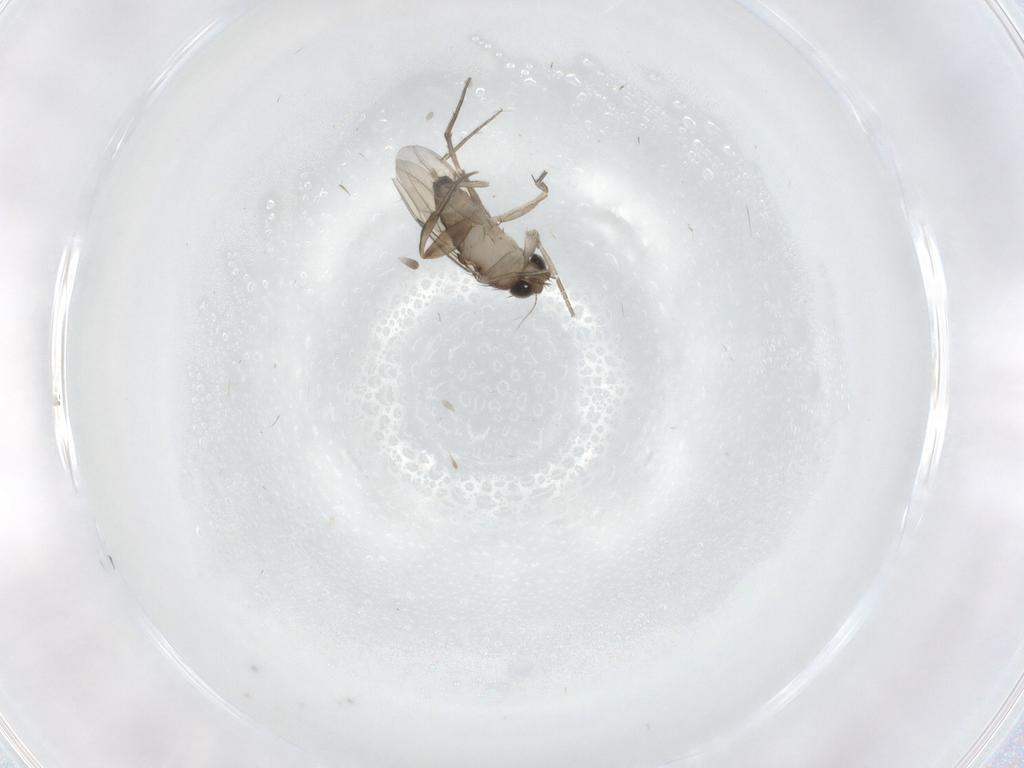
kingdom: Animalia
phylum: Arthropoda
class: Insecta
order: Diptera
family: Phoridae
